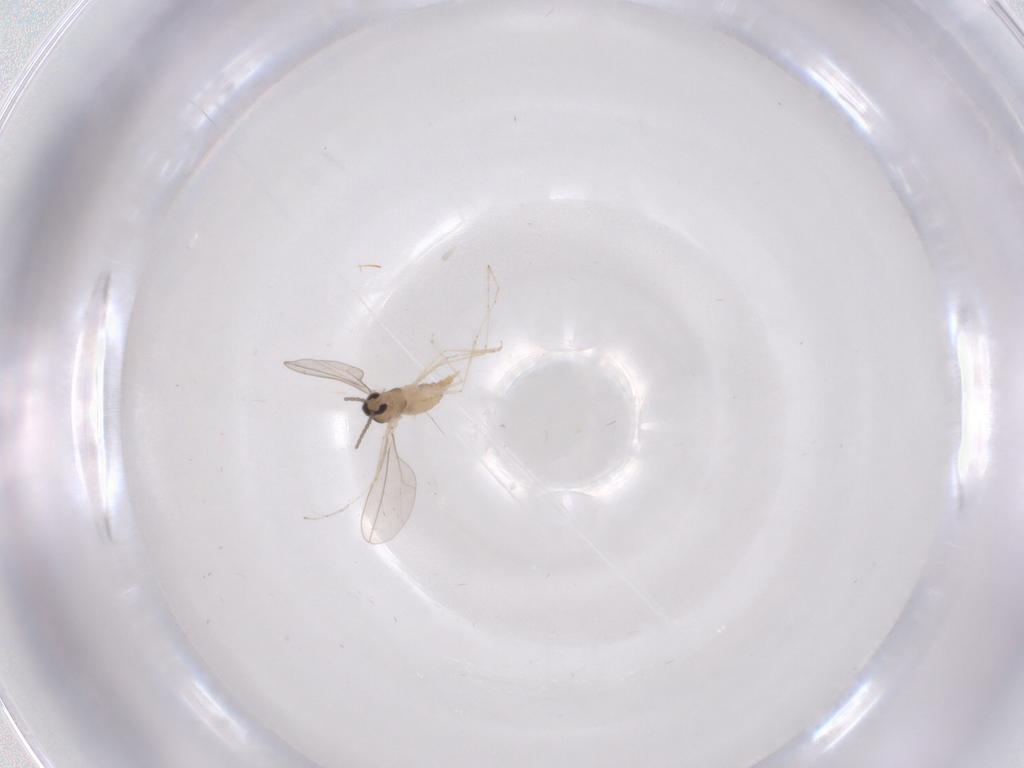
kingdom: Animalia
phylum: Arthropoda
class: Insecta
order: Diptera
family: Cecidomyiidae
